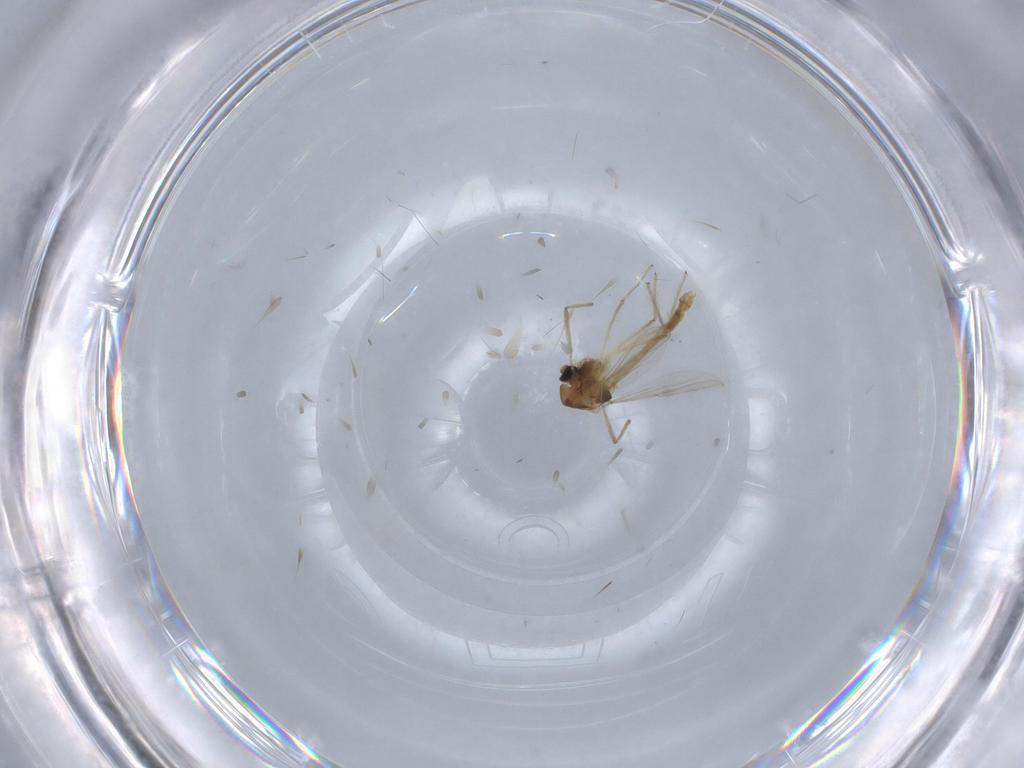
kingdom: Animalia
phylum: Arthropoda
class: Insecta
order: Diptera
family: Chironomidae
